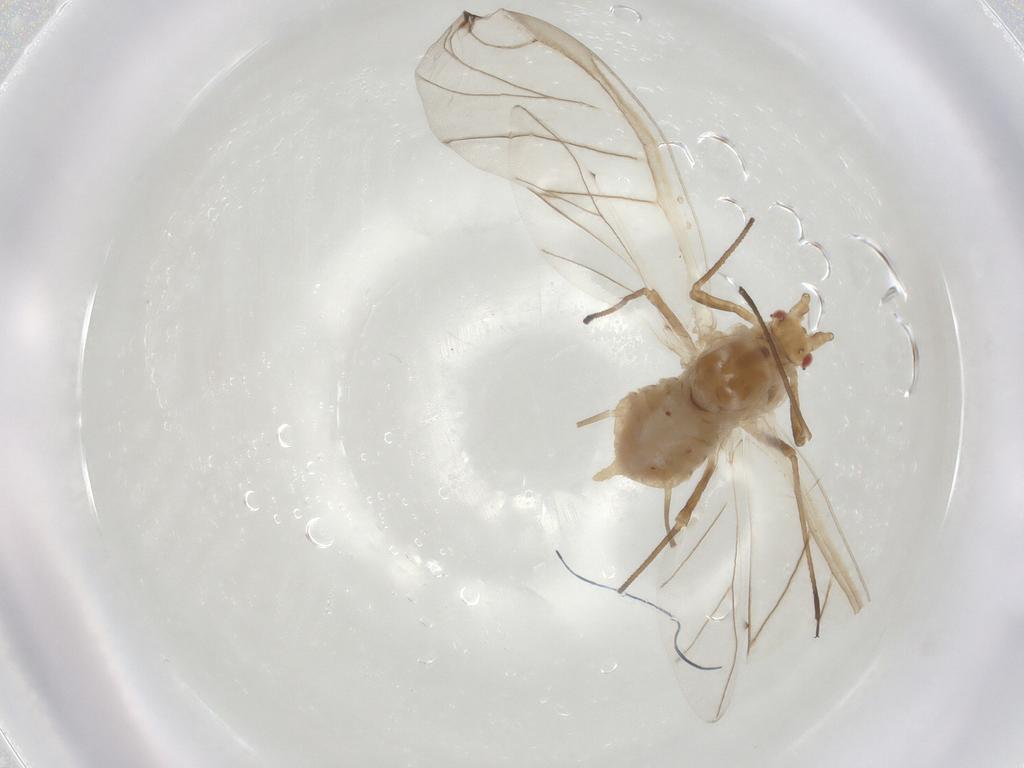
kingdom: Animalia
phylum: Arthropoda
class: Insecta
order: Hemiptera
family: Aphididae
